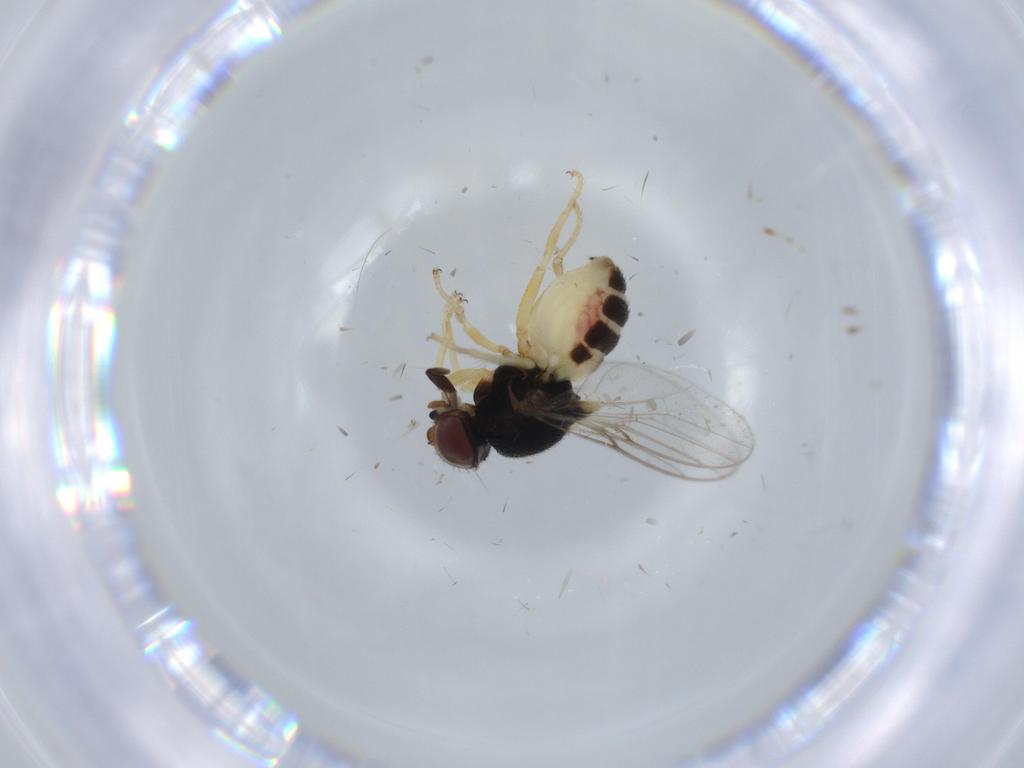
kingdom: Animalia
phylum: Arthropoda
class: Insecta
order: Diptera
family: Chloropidae
